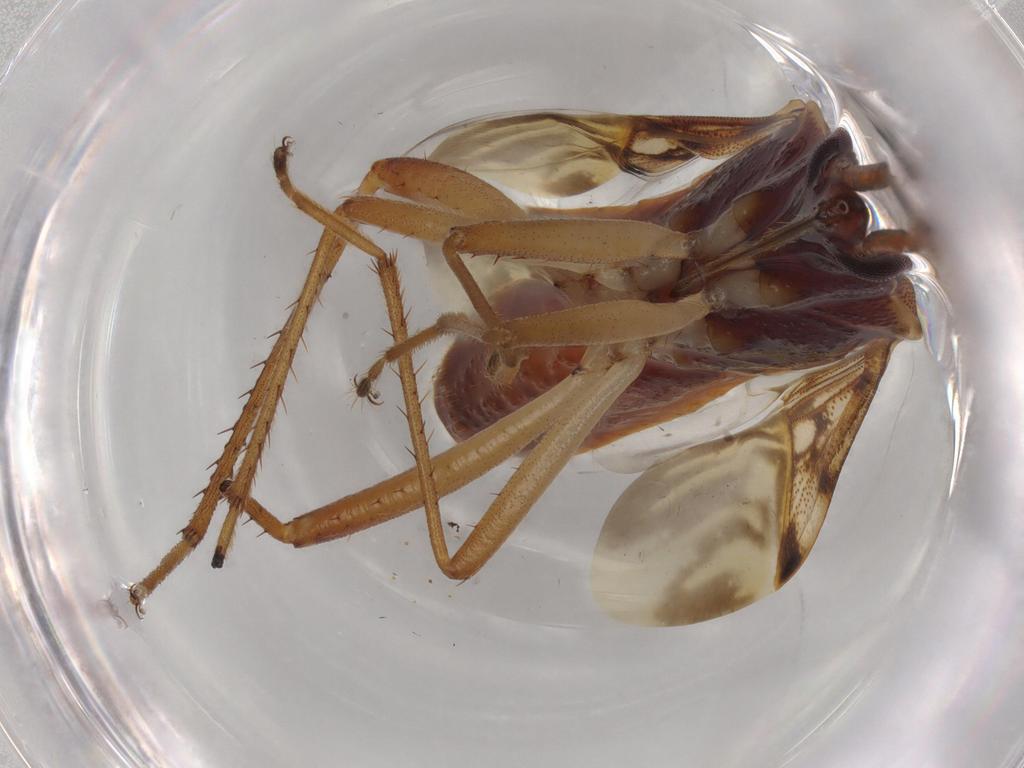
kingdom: Animalia
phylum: Arthropoda
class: Insecta
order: Hemiptera
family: Rhyparochromidae
